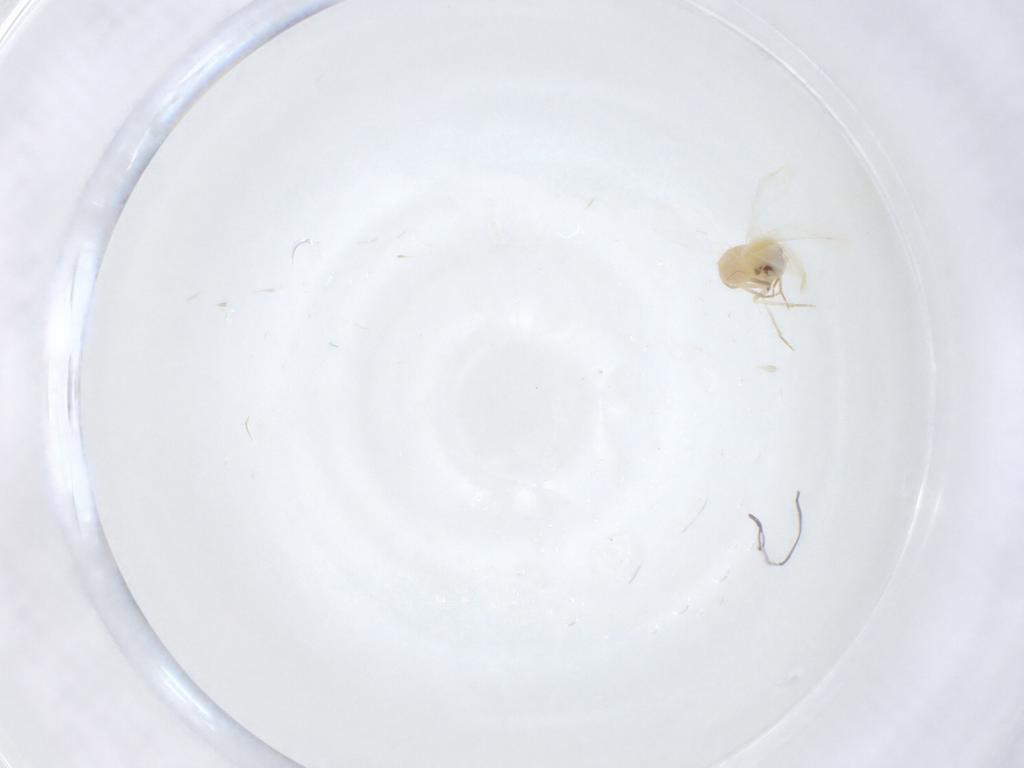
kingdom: Animalia
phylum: Arthropoda
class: Insecta
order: Hemiptera
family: Aleyrodidae
